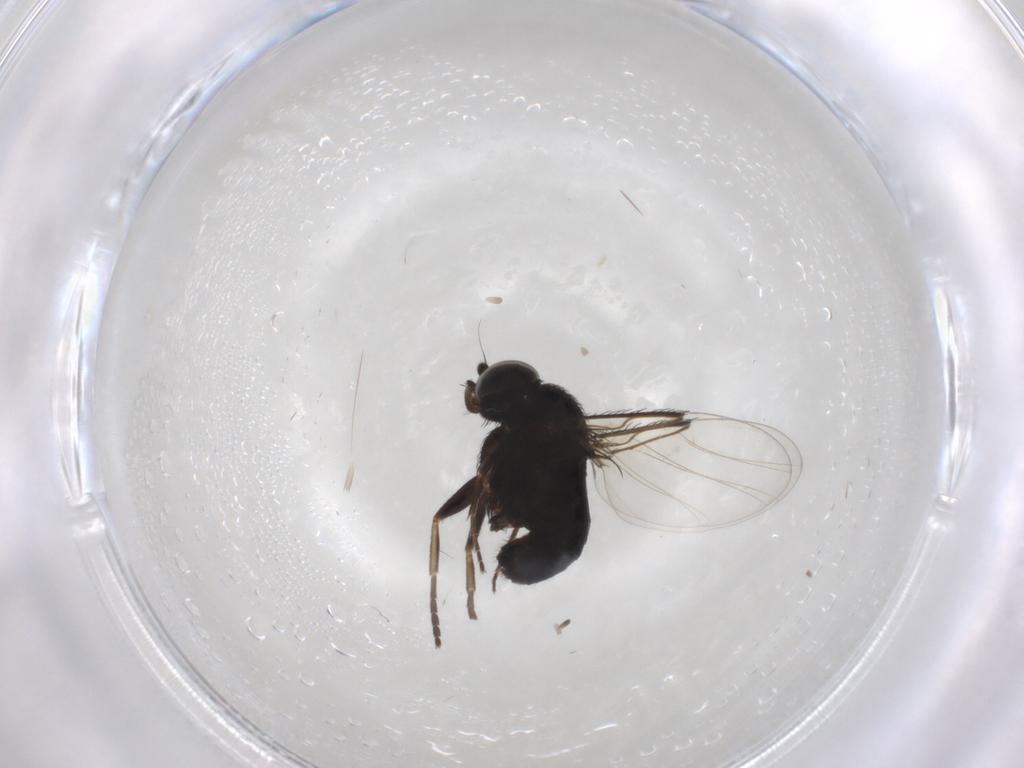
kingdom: Animalia
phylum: Arthropoda
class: Insecta
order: Diptera
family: Phoridae
